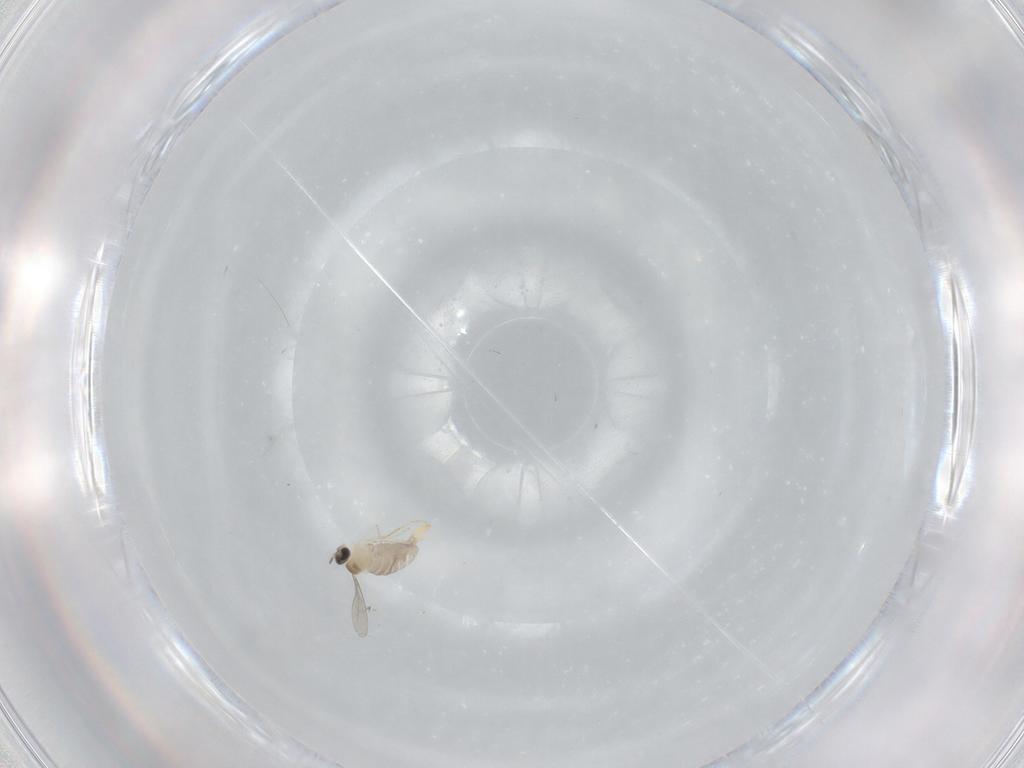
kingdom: Animalia
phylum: Arthropoda
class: Insecta
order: Diptera
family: Cecidomyiidae
